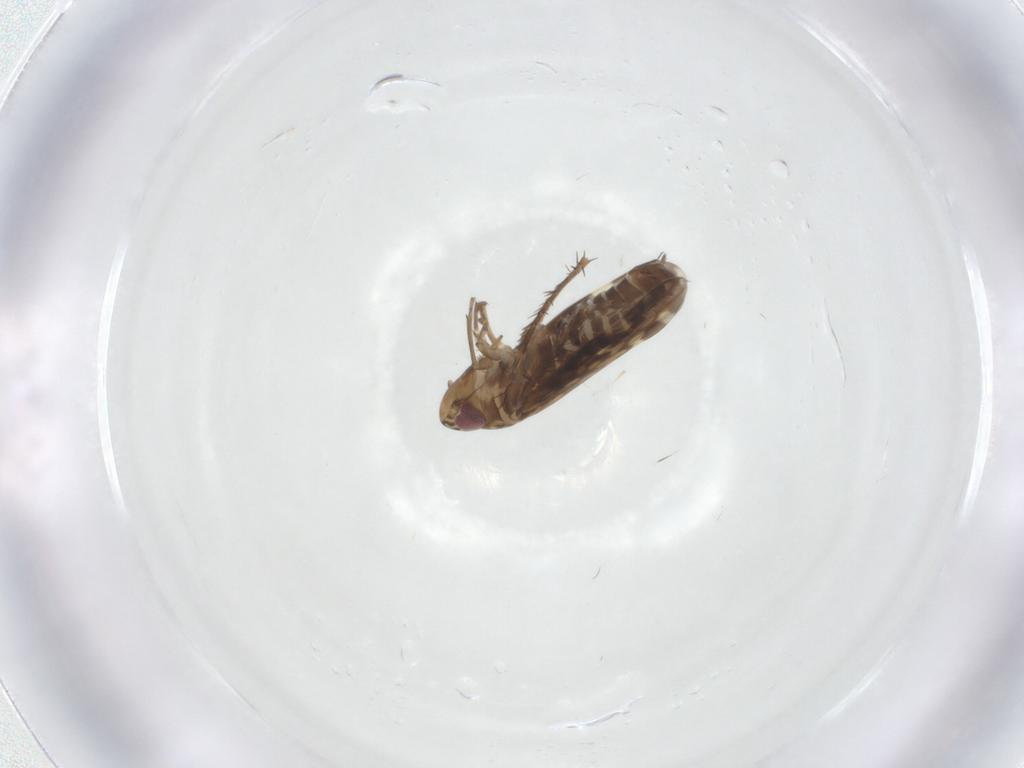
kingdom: Animalia
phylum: Arthropoda
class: Insecta
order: Hemiptera
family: Cicadellidae
